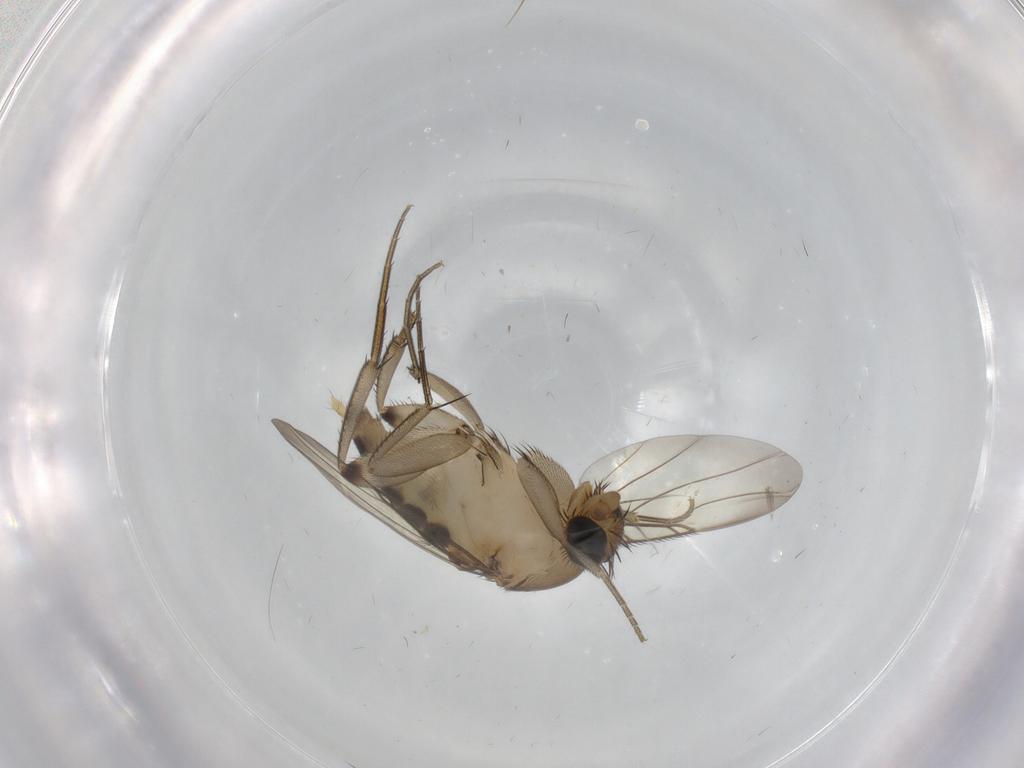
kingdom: Animalia
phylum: Arthropoda
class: Insecta
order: Diptera
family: Phoridae
